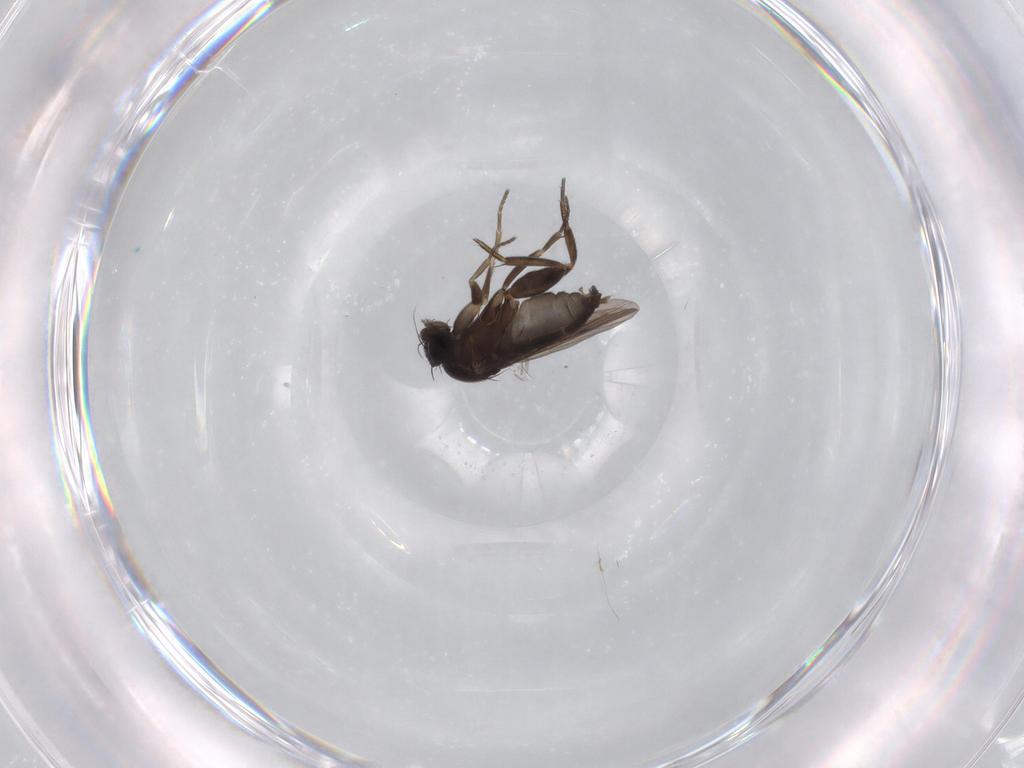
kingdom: Animalia
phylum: Arthropoda
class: Insecta
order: Diptera
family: Phoridae
